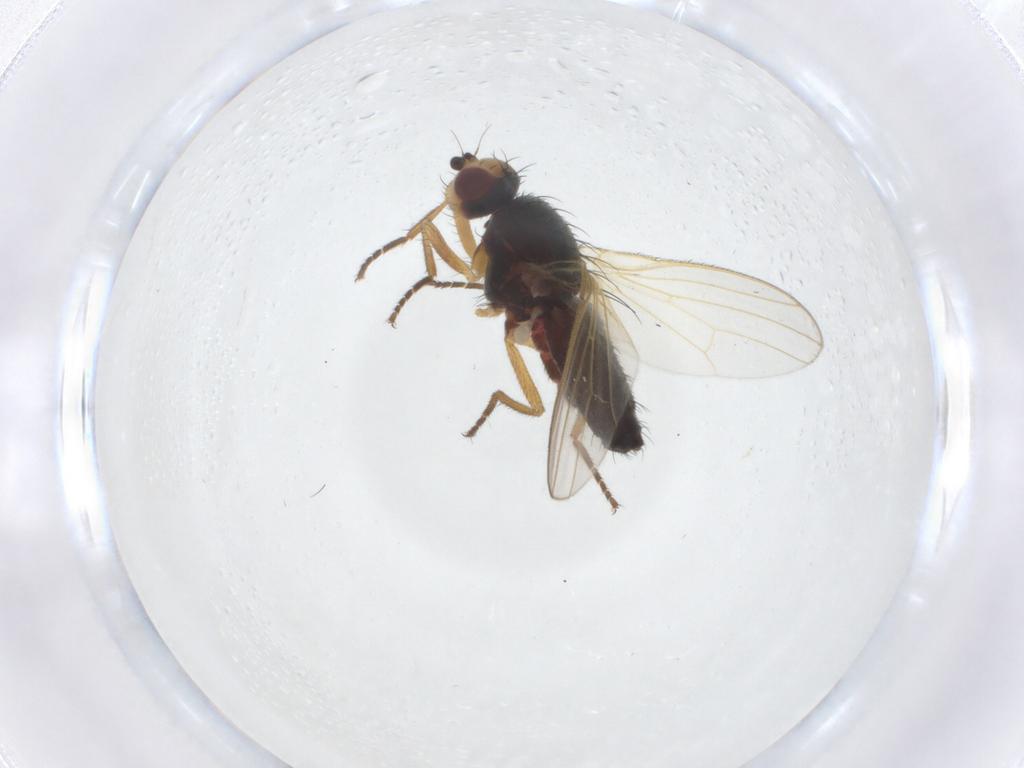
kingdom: Animalia
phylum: Arthropoda
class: Insecta
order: Diptera
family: Heleomyzidae
